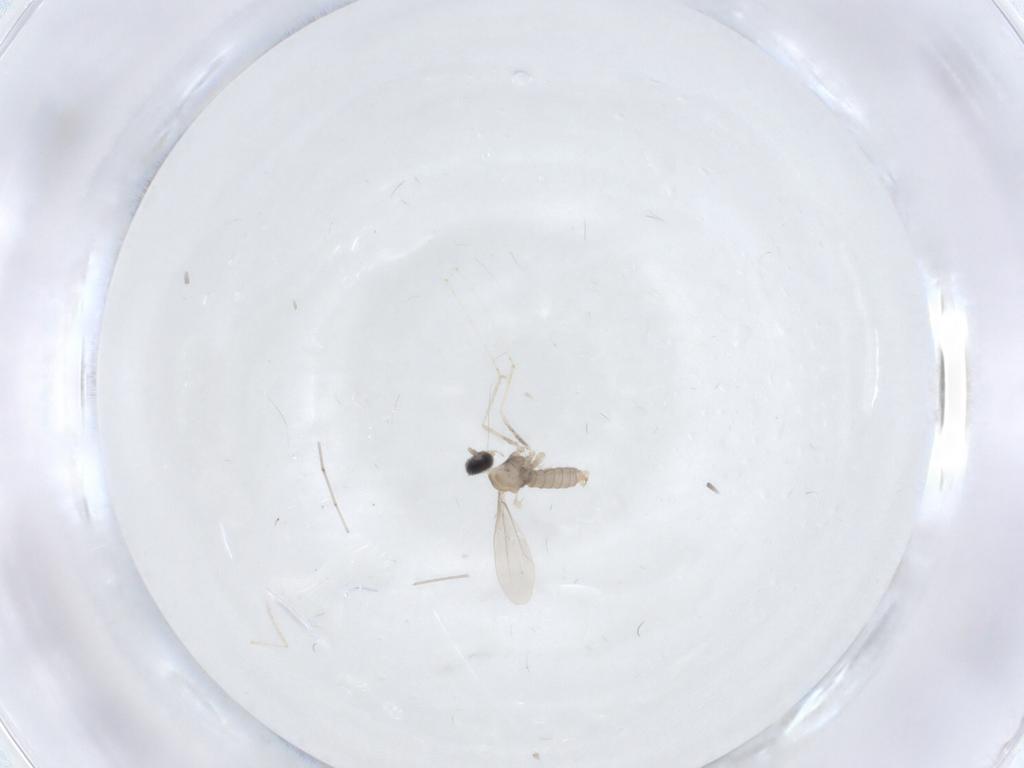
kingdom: Animalia
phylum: Arthropoda
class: Insecta
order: Diptera
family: Cecidomyiidae
